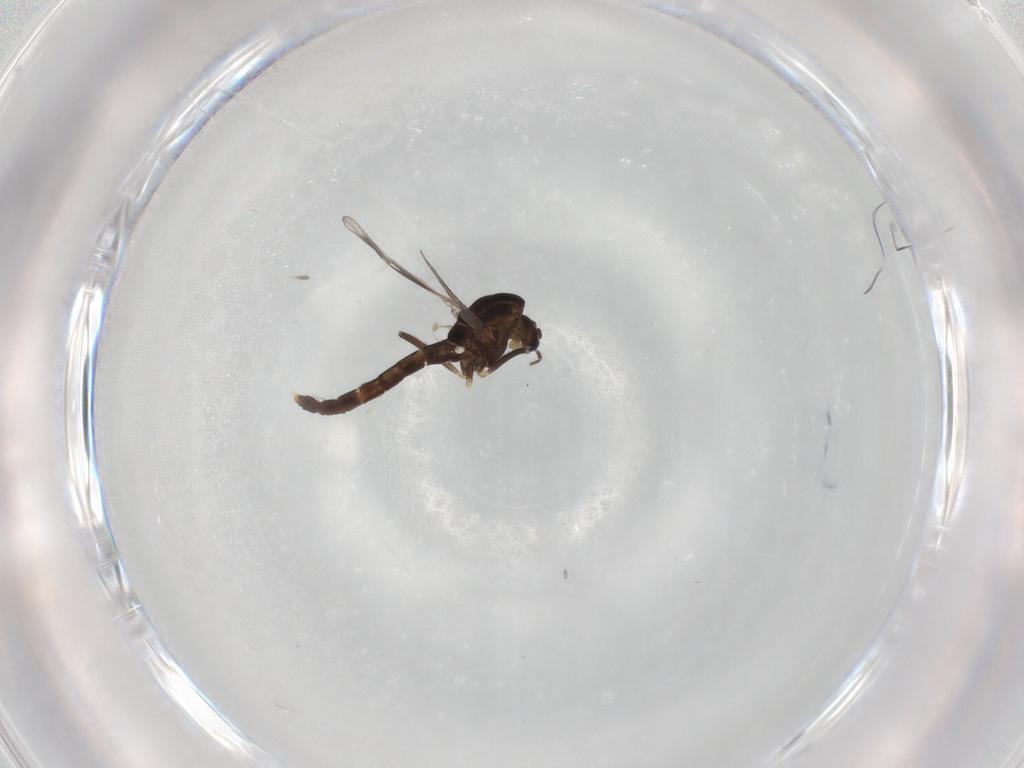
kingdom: Animalia
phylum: Arthropoda
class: Insecta
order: Diptera
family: Chironomidae
